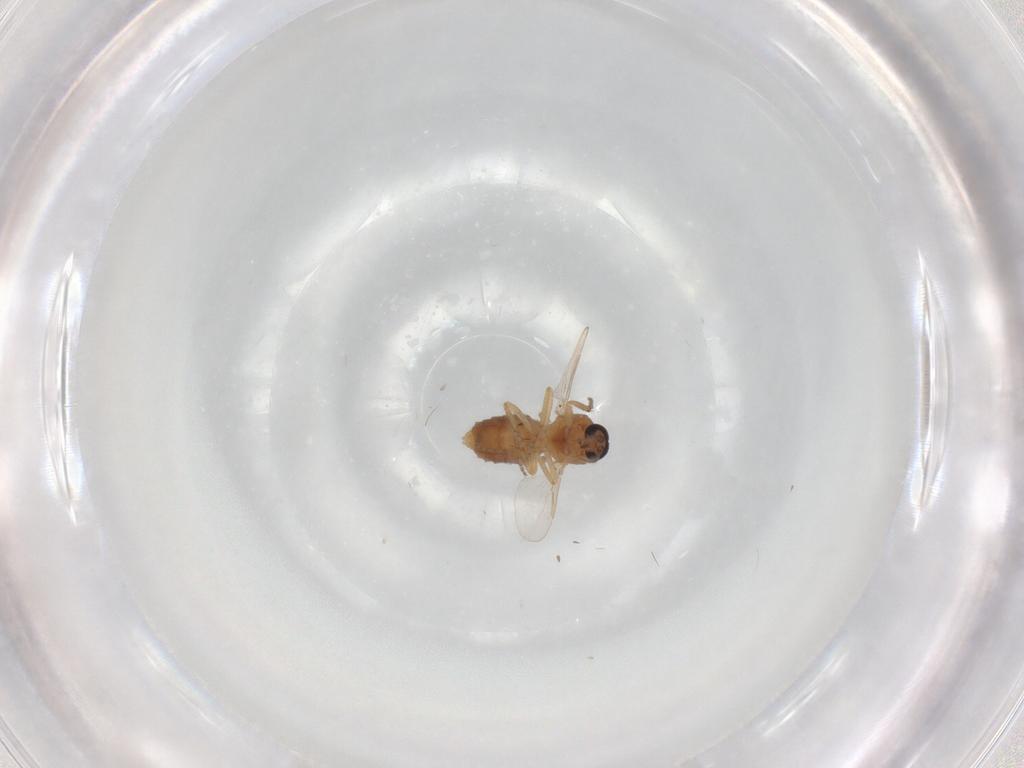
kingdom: Animalia
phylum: Arthropoda
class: Insecta
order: Diptera
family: Ceratopogonidae
